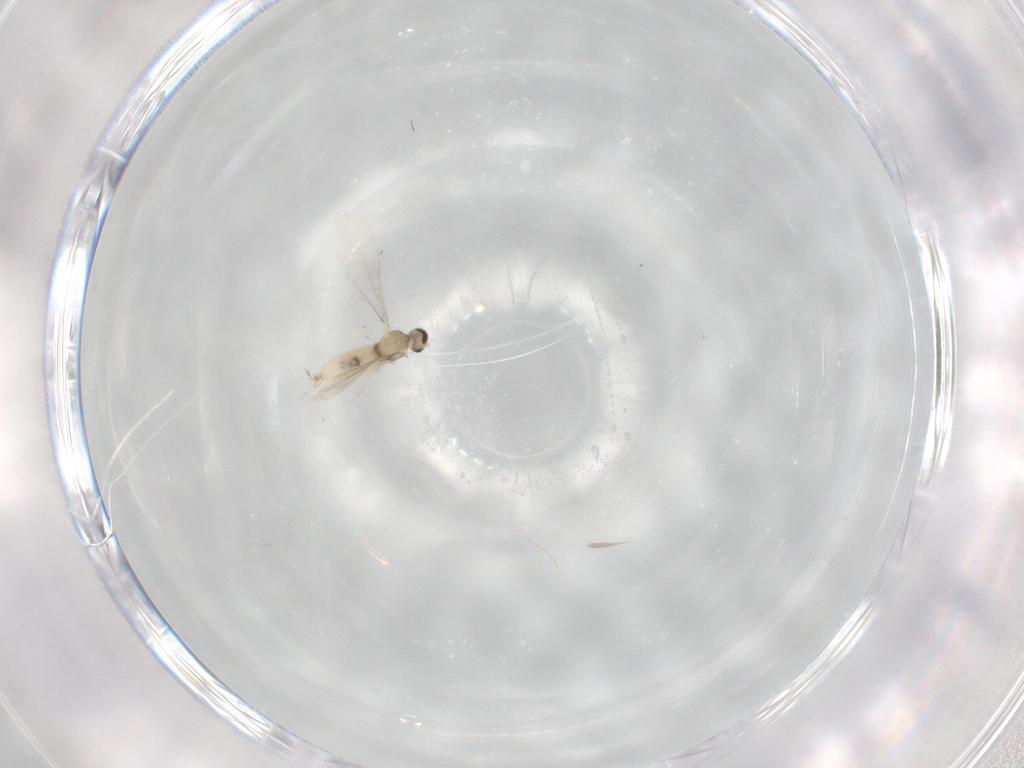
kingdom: Animalia
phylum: Arthropoda
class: Insecta
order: Diptera
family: Cecidomyiidae
